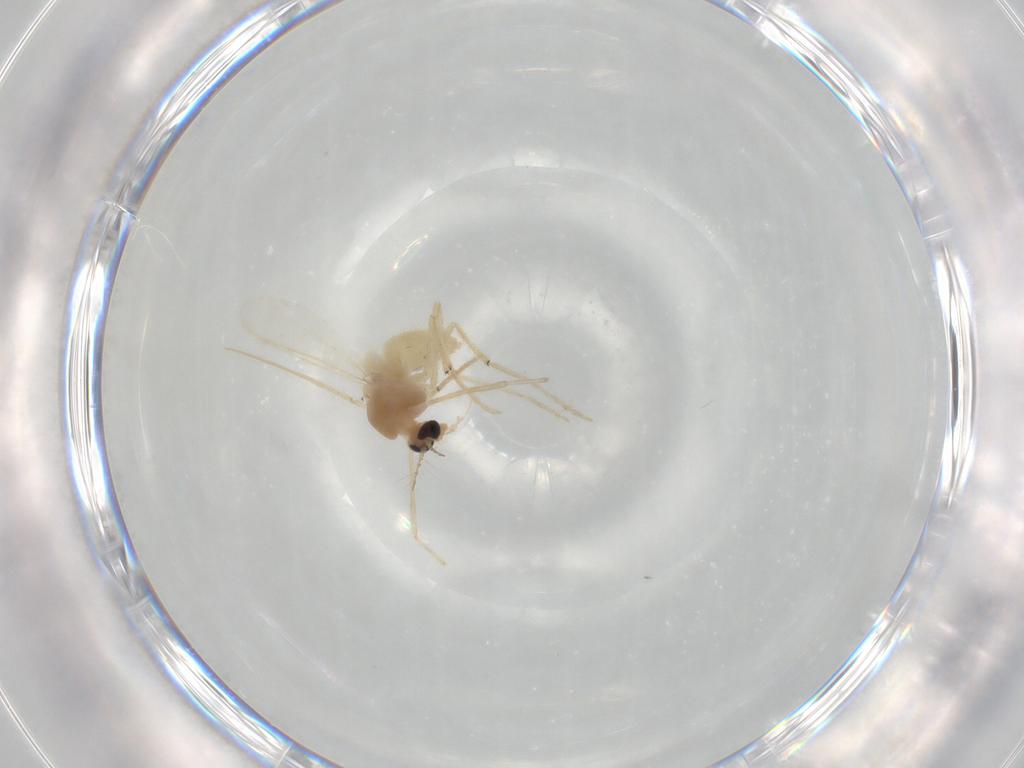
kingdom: Animalia
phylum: Arthropoda
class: Insecta
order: Diptera
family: Chironomidae
